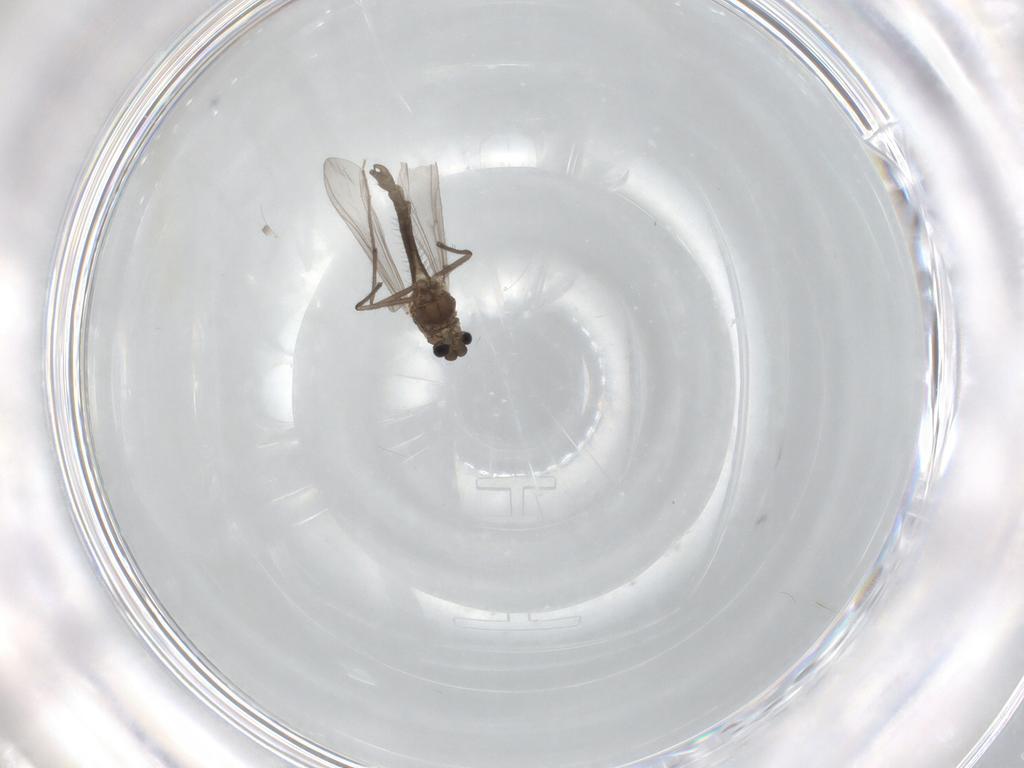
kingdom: Animalia
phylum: Arthropoda
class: Insecta
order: Diptera
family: Chironomidae
